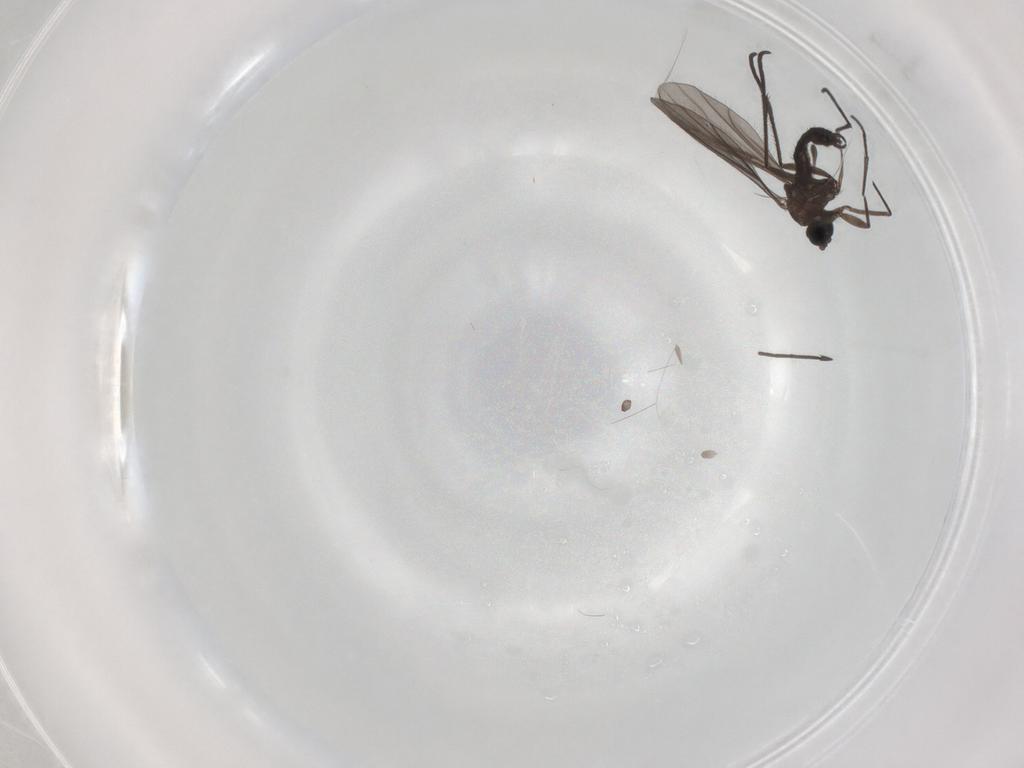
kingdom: Animalia
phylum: Arthropoda
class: Insecta
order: Diptera
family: Sciaridae
